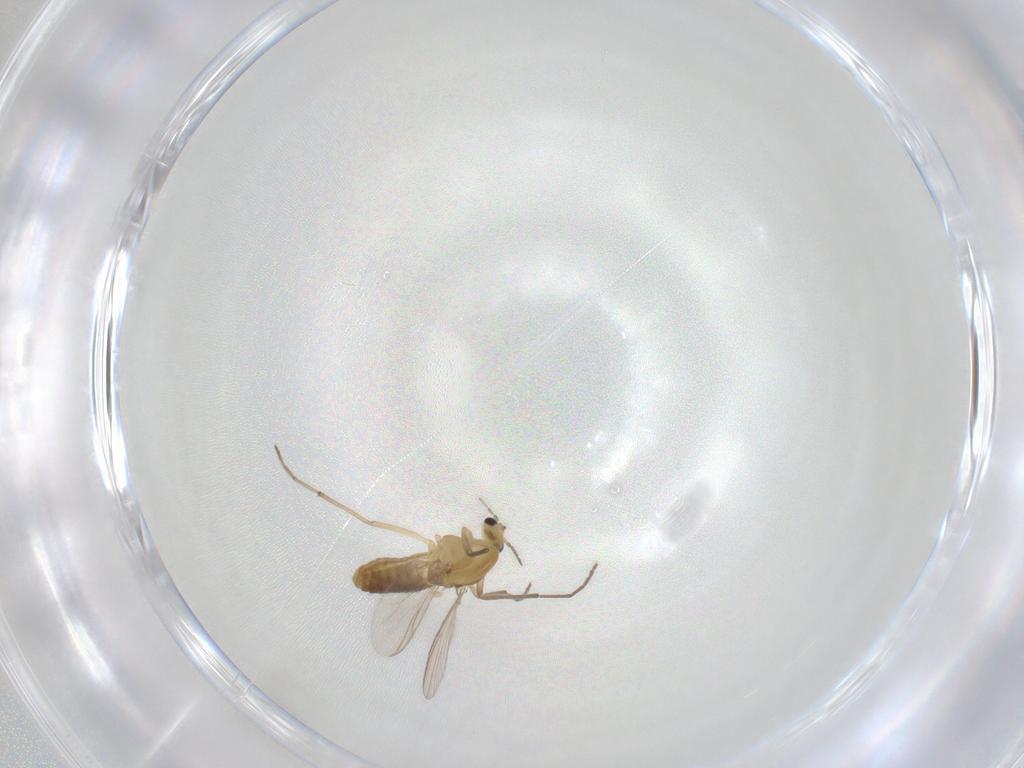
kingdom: Animalia
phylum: Arthropoda
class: Insecta
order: Diptera
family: Chironomidae
